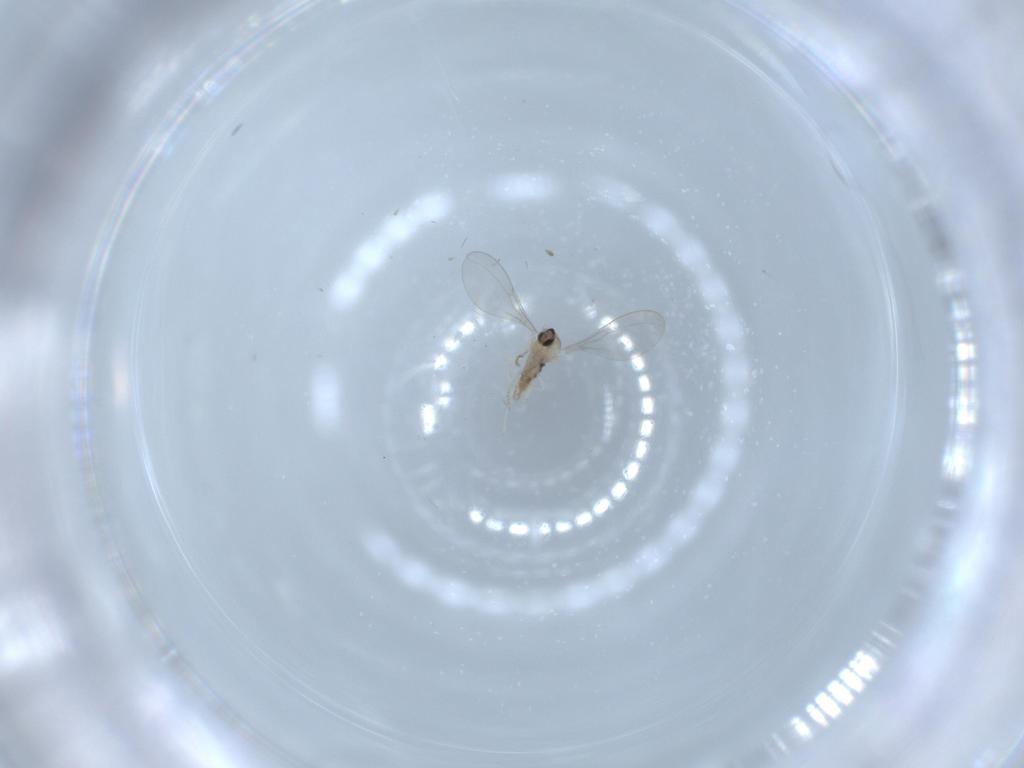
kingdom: Animalia
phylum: Arthropoda
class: Insecta
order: Diptera
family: Cecidomyiidae
